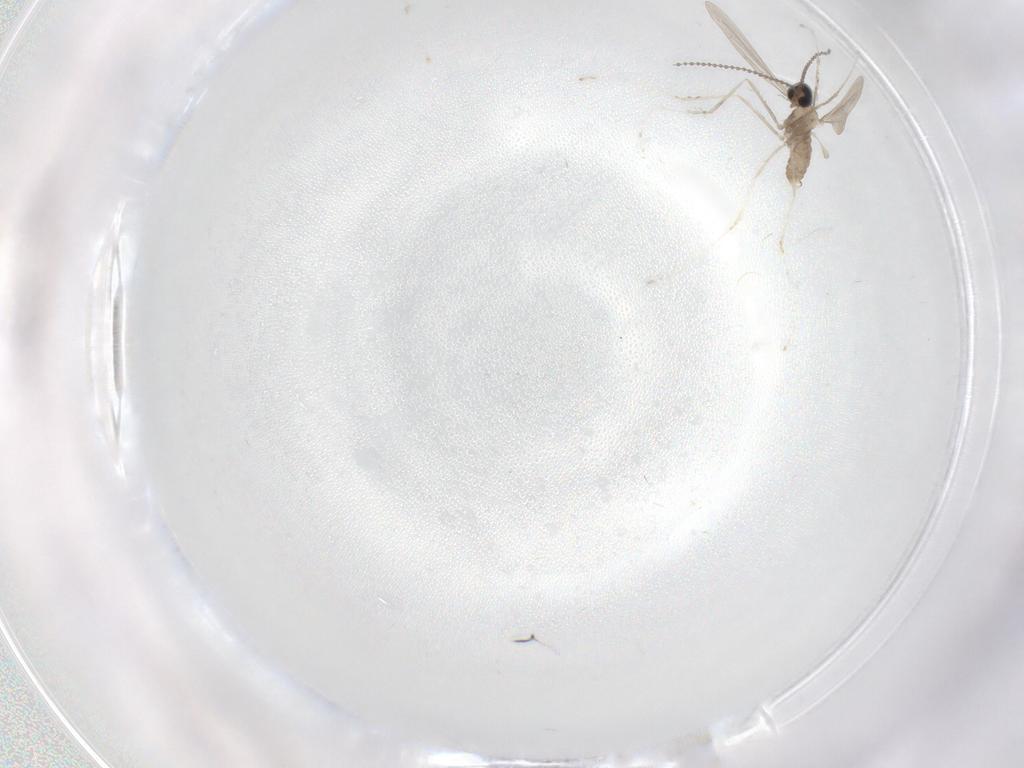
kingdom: Animalia
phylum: Arthropoda
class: Insecta
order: Diptera
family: Cecidomyiidae
